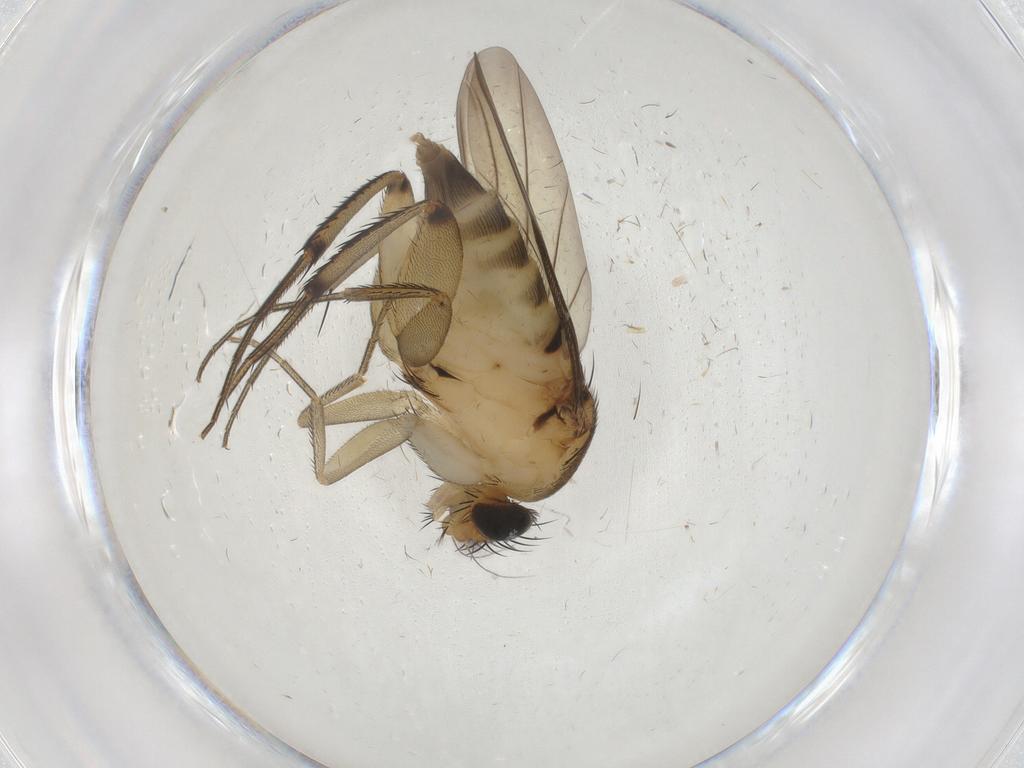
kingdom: Animalia
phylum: Arthropoda
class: Insecta
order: Diptera
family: Phoridae
